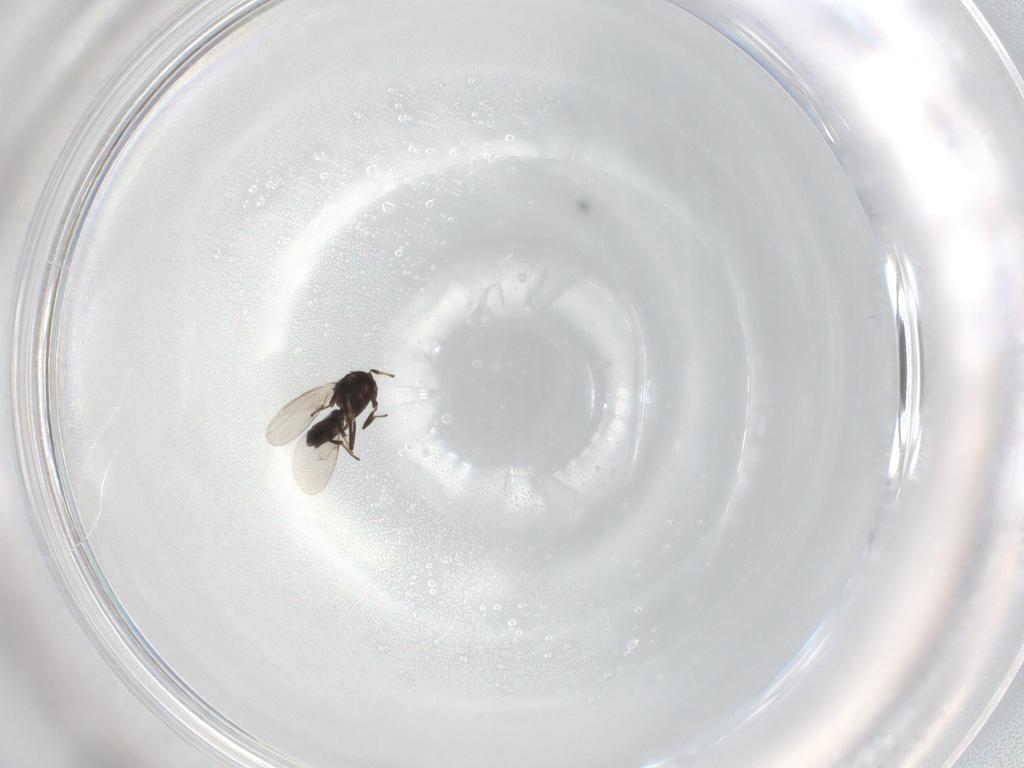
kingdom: Animalia
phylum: Arthropoda
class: Insecta
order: Hymenoptera
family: Encyrtidae
